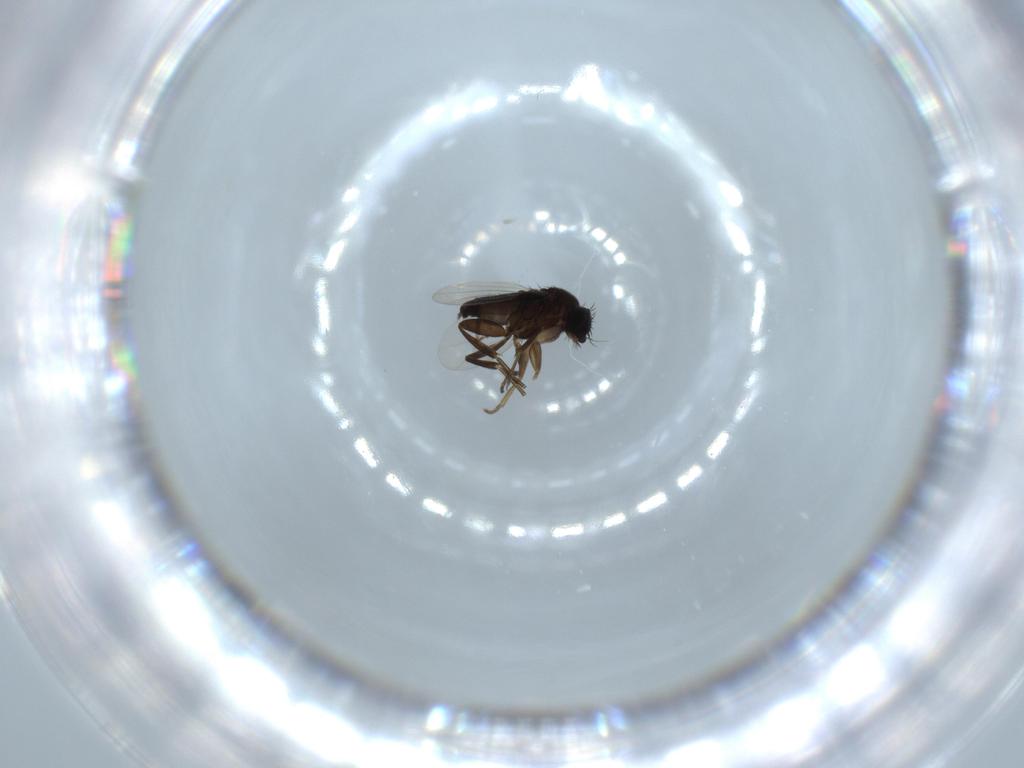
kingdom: Animalia
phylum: Arthropoda
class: Insecta
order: Diptera
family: Phoridae
